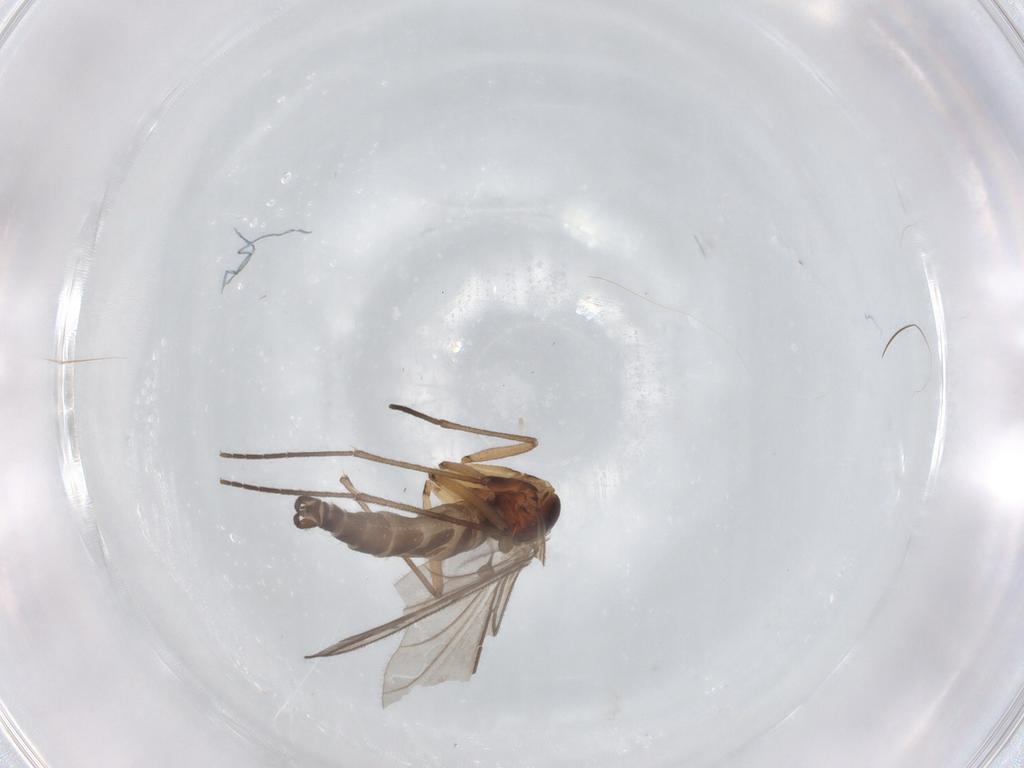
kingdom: Animalia
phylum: Arthropoda
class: Insecta
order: Diptera
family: Sciaridae
